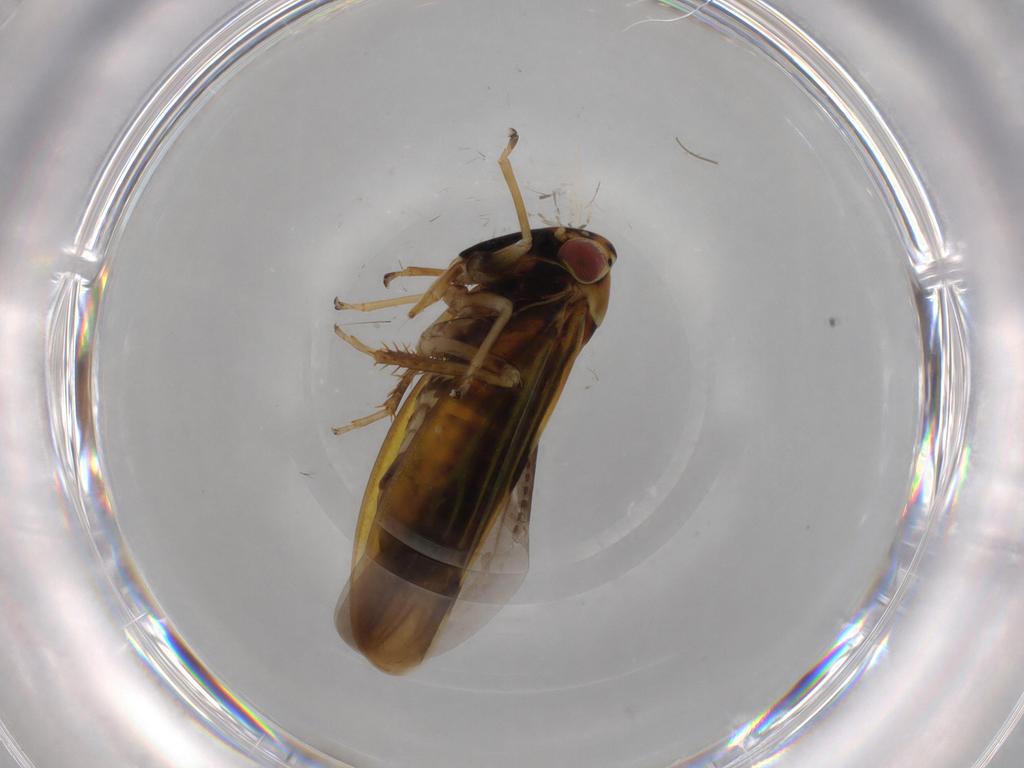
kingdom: Animalia
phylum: Arthropoda
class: Insecta
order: Hemiptera
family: Cicadellidae
